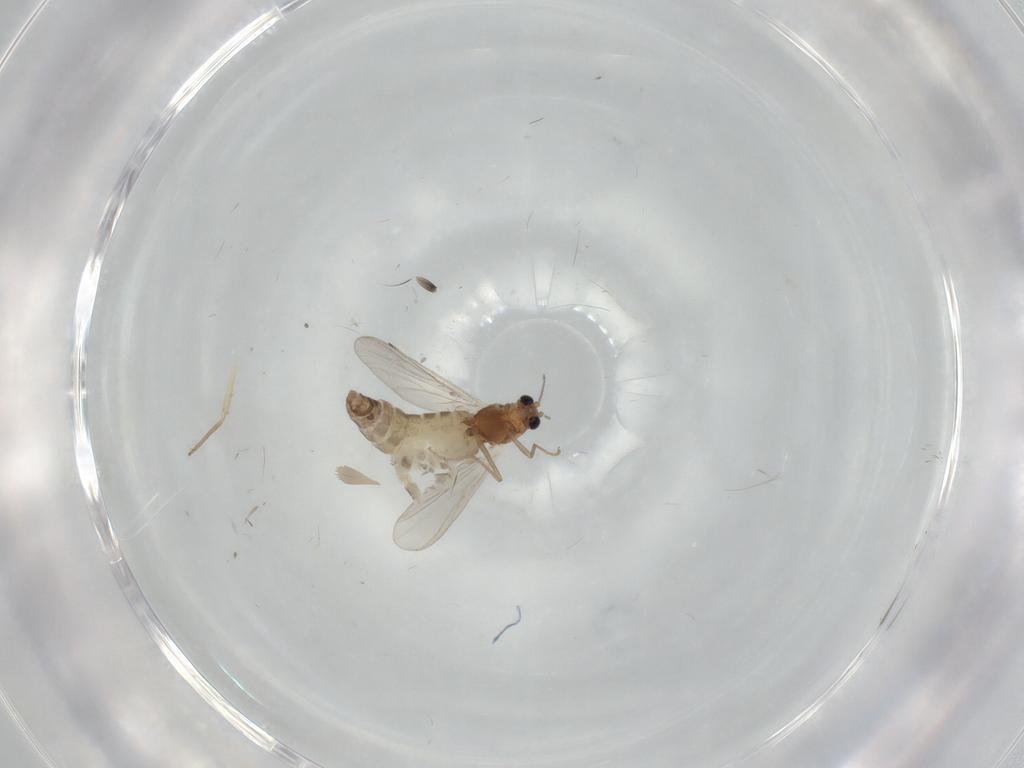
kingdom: Animalia
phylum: Arthropoda
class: Insecta
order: Diptera
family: Chironomidae
